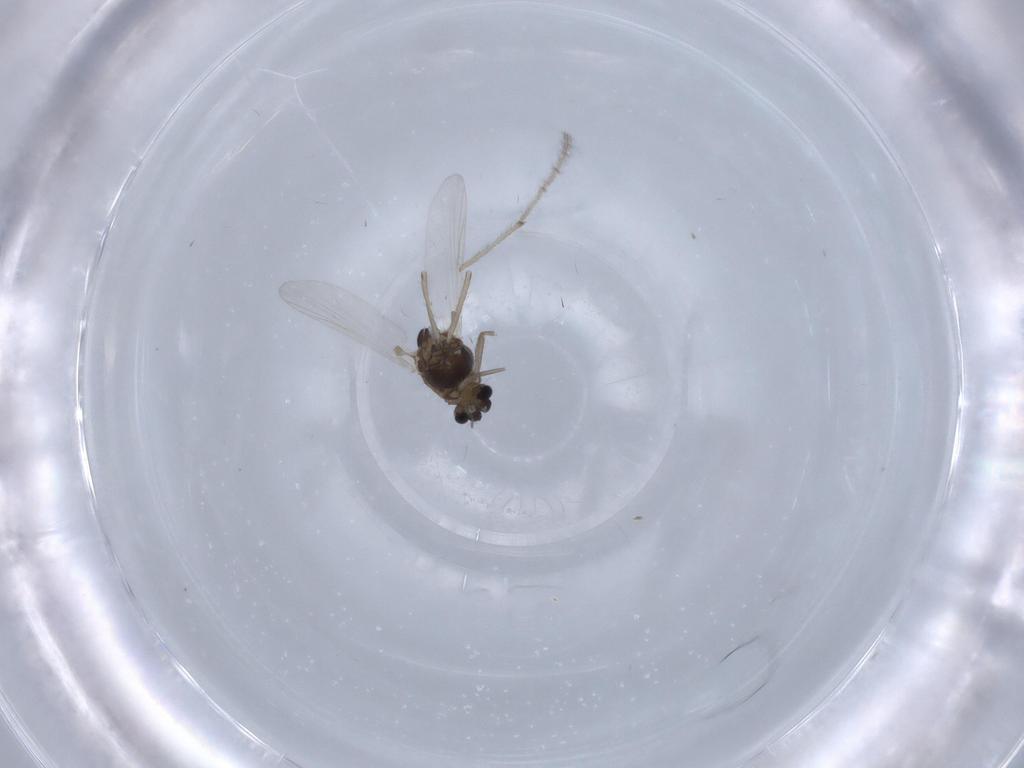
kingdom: Animalia
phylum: Arthropoda
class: Insecta
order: Diptera
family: Chironomidae
